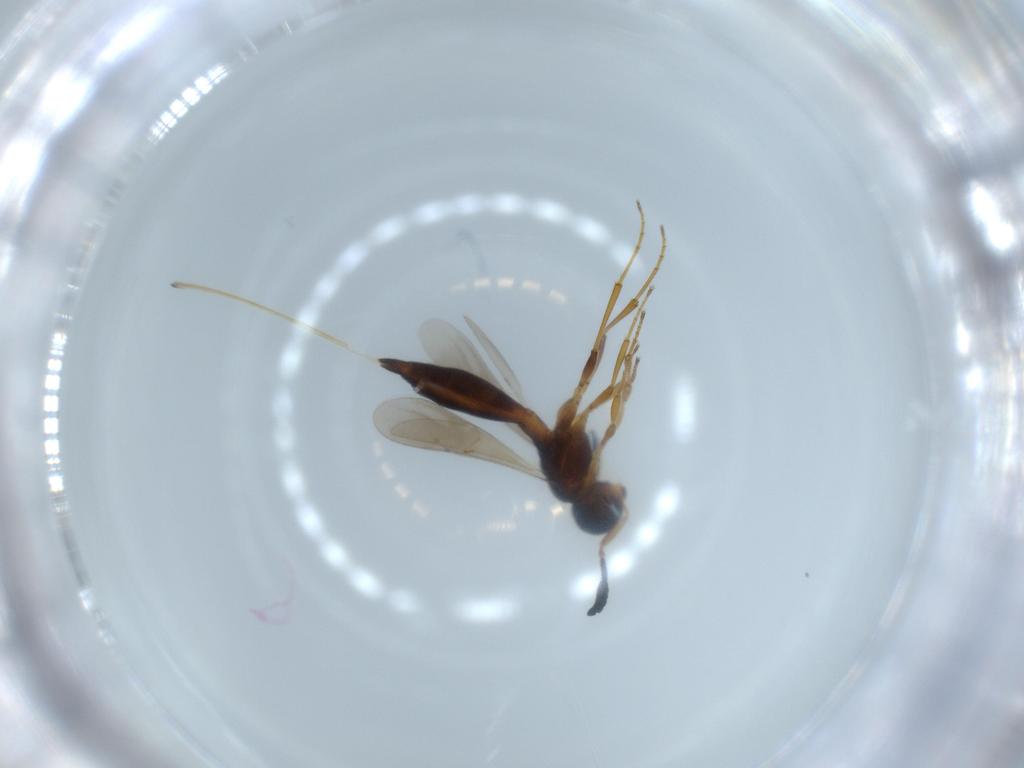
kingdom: Animalia
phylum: Arthropoda
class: Insecta
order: Hymenoptera
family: Scelionidae
